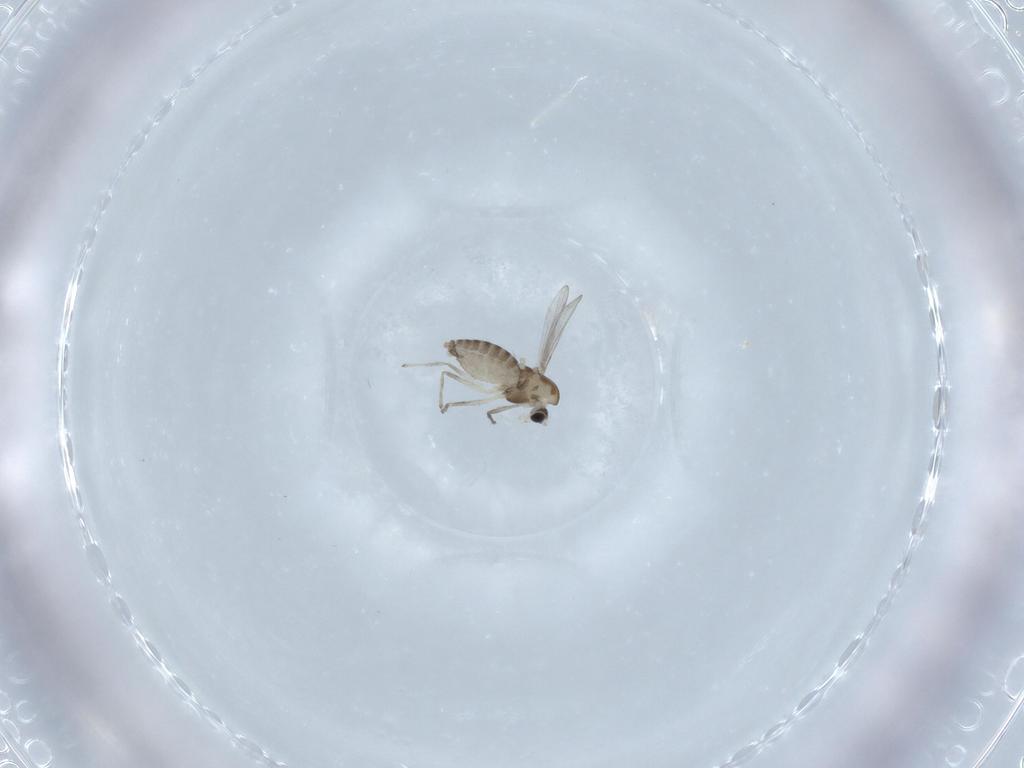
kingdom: Animalia
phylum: Arthropoda
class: Insecta
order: Diptera
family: Chironomidae
